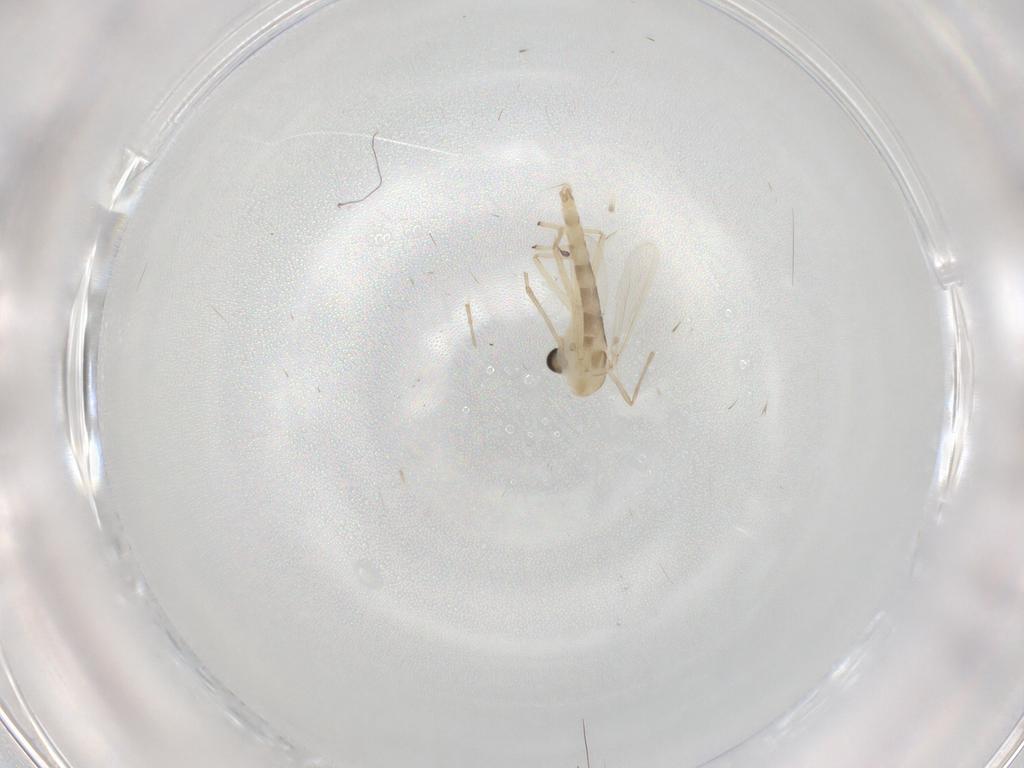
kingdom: Animalia
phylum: Arthropoda
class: Insecta
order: Diptera
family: Chironomidae
